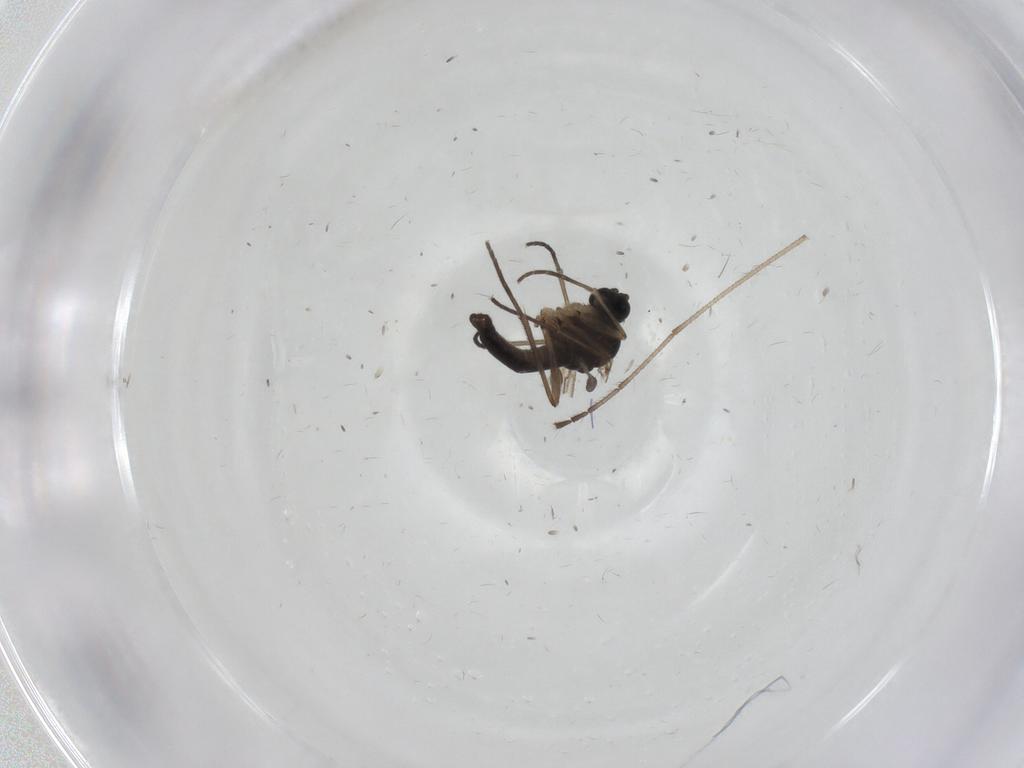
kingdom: Animalia
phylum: Arthropoda
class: Insecta
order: Diptera
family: Sciaridae
